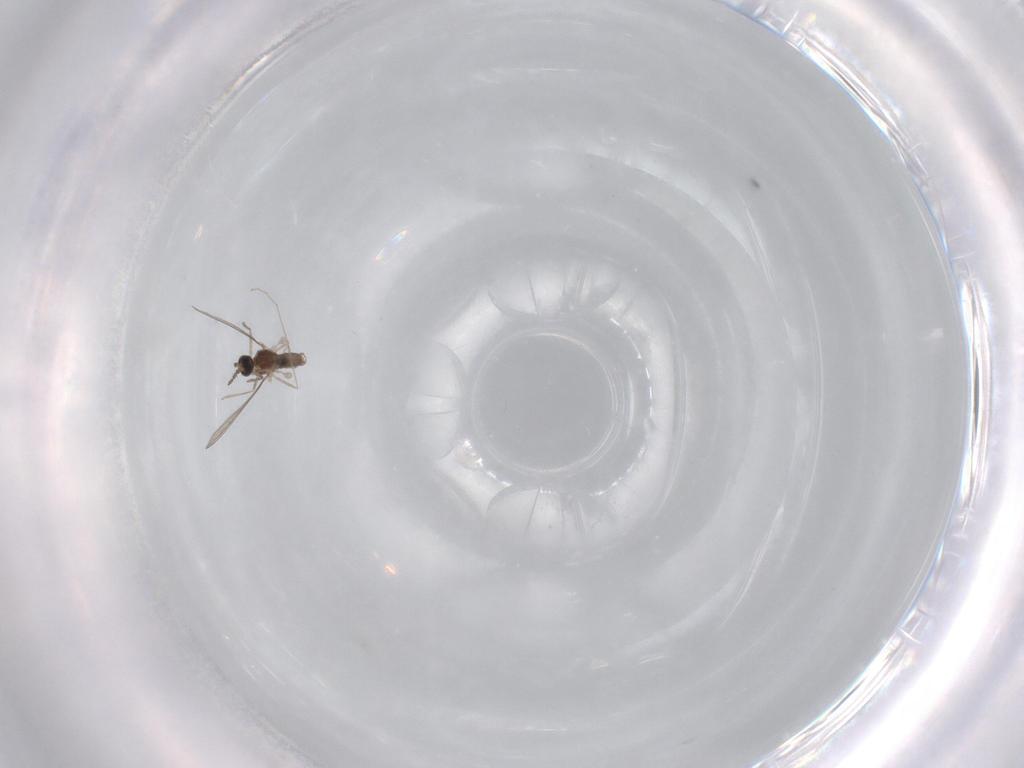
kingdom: Animalia
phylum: Arthropoda
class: Insecta
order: Diptera
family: Chironomidae
